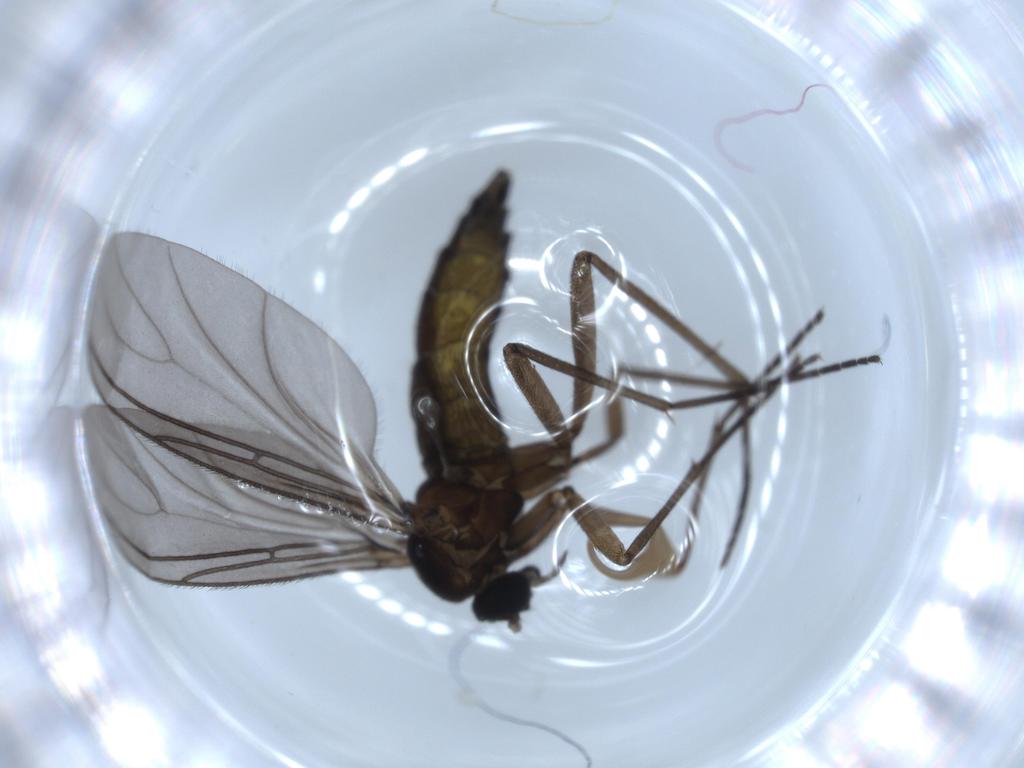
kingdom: Animalia
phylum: Arthropoda
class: Insecta
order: Diptera
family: Sciaridae
